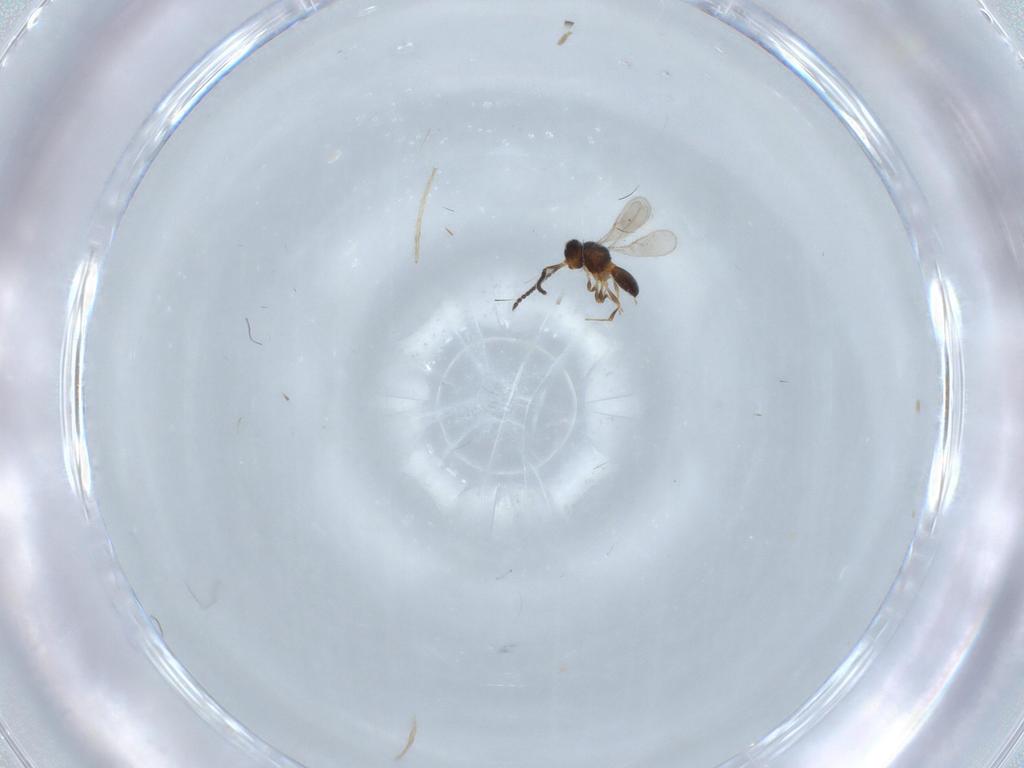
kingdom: Animalia
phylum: Arthropoda
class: Insecta
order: Hymenoptera
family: Scelionidae
